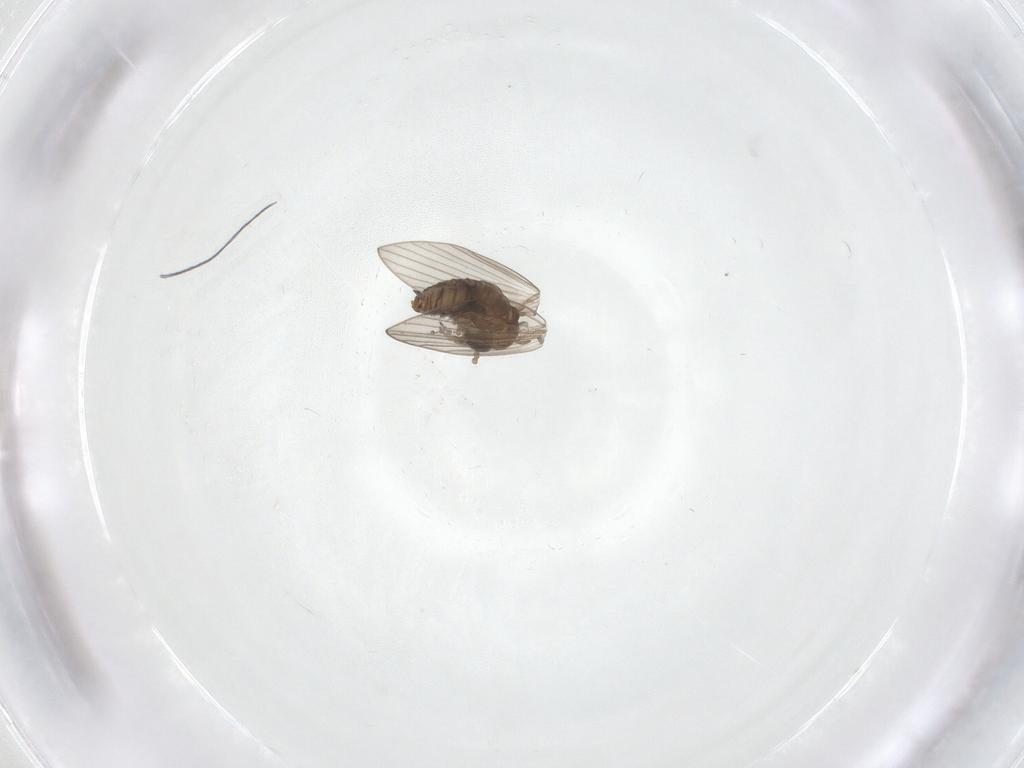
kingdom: Animalia
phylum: Arthropoda
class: Insecta
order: Diptera
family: Psychodidae
